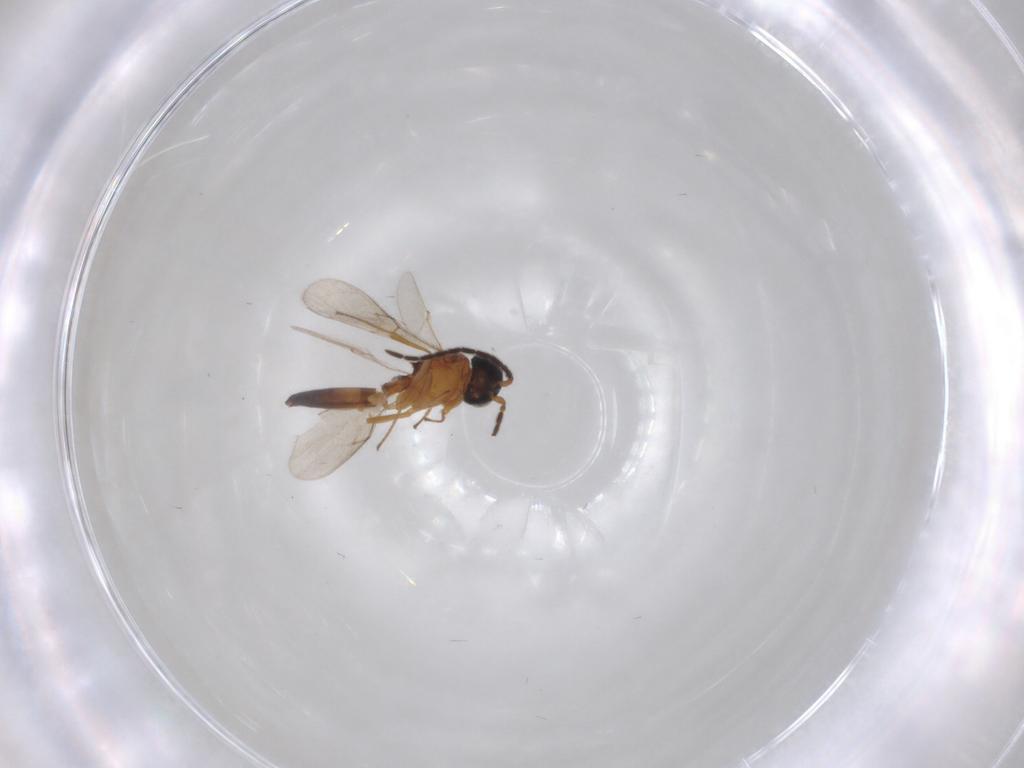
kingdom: Animalia
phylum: Arthropoda
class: Insecta
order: Hymenoptera
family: Scelionidae
